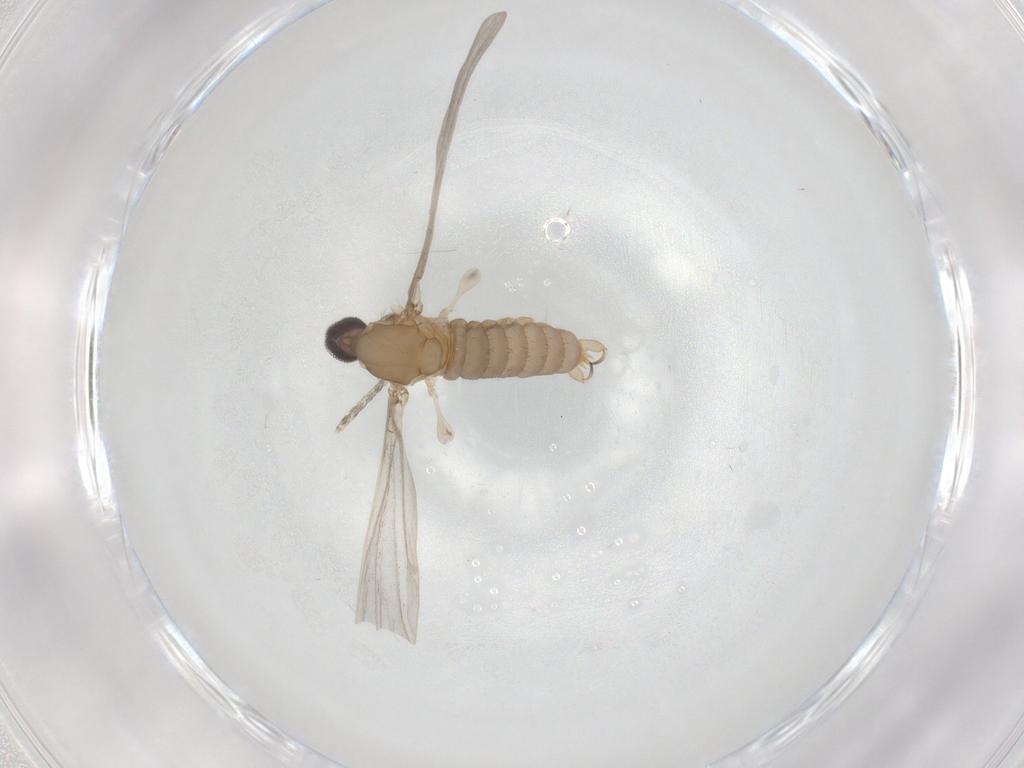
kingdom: Animalia
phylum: Arthropoda
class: Insecta
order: Diptera
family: Cecidomyiidae
